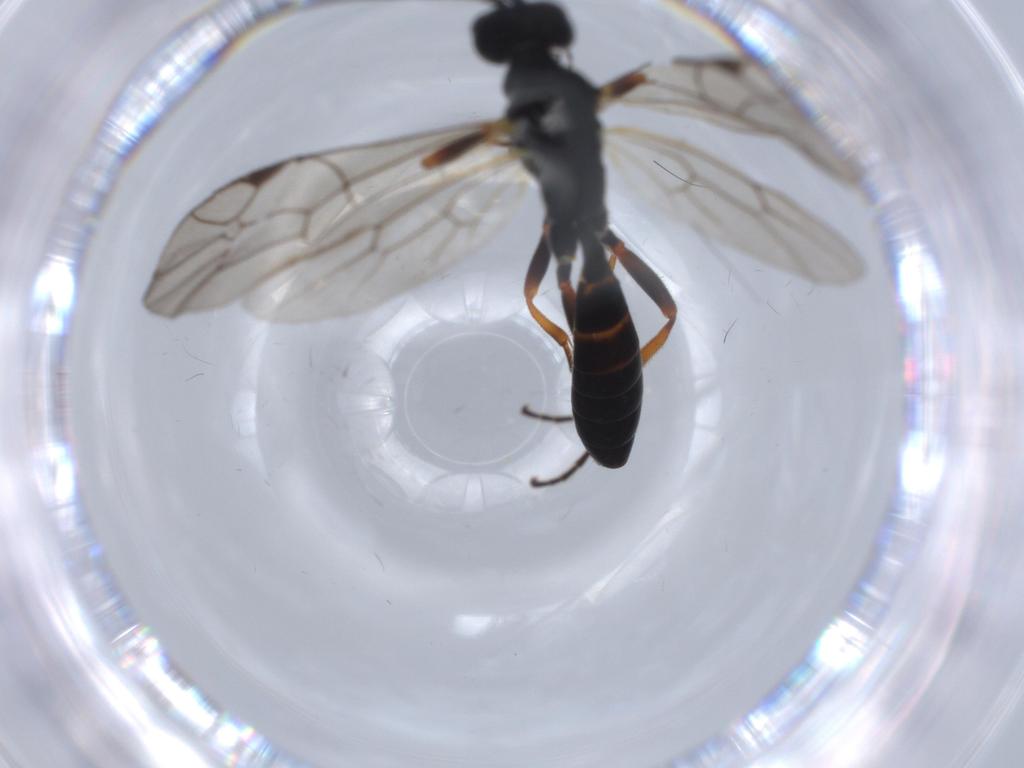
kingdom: Animalia
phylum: Arthropoda
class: Insecta
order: Hymenoptera
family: Ichneumonidae
